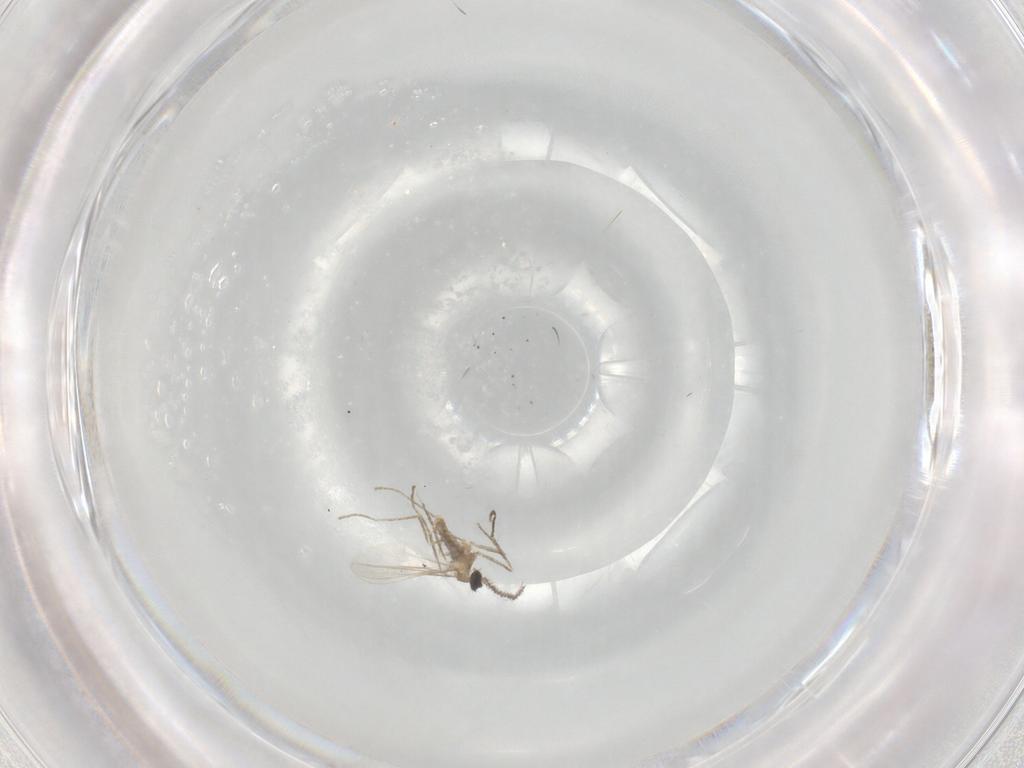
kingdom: Animalia
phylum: Arthropoda
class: Insecta
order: Diptera
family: Cecidomyiidae
